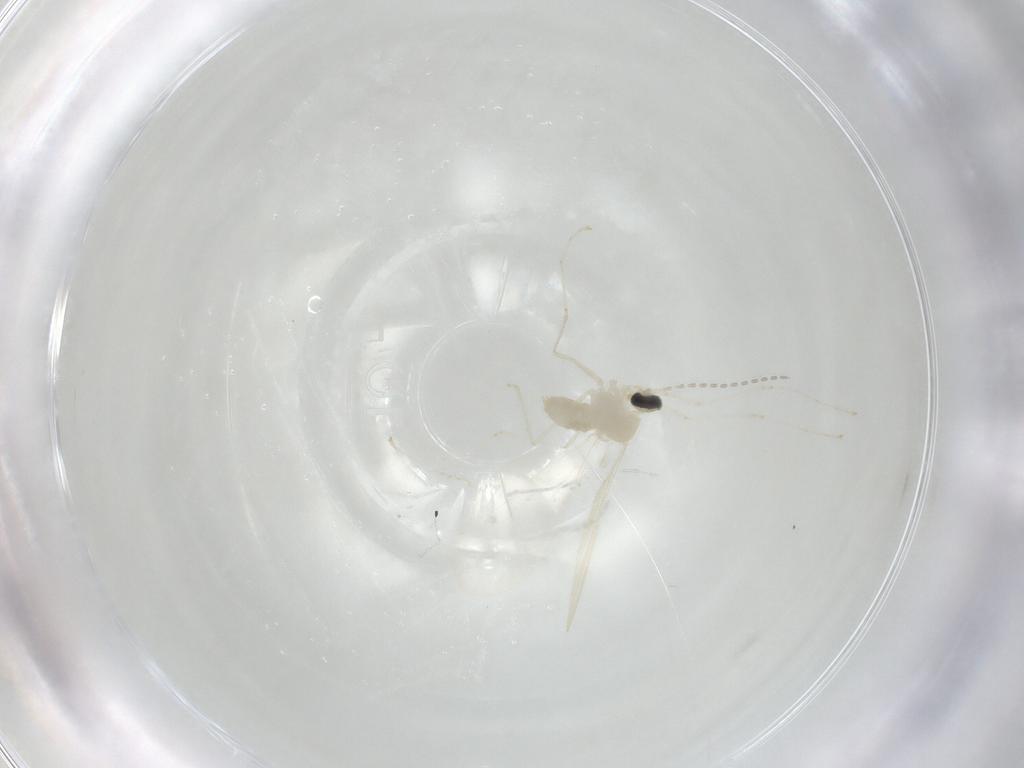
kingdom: Animalia
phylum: Arthropoda
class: Insecta
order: Diptera
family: Cecidomyiidae
